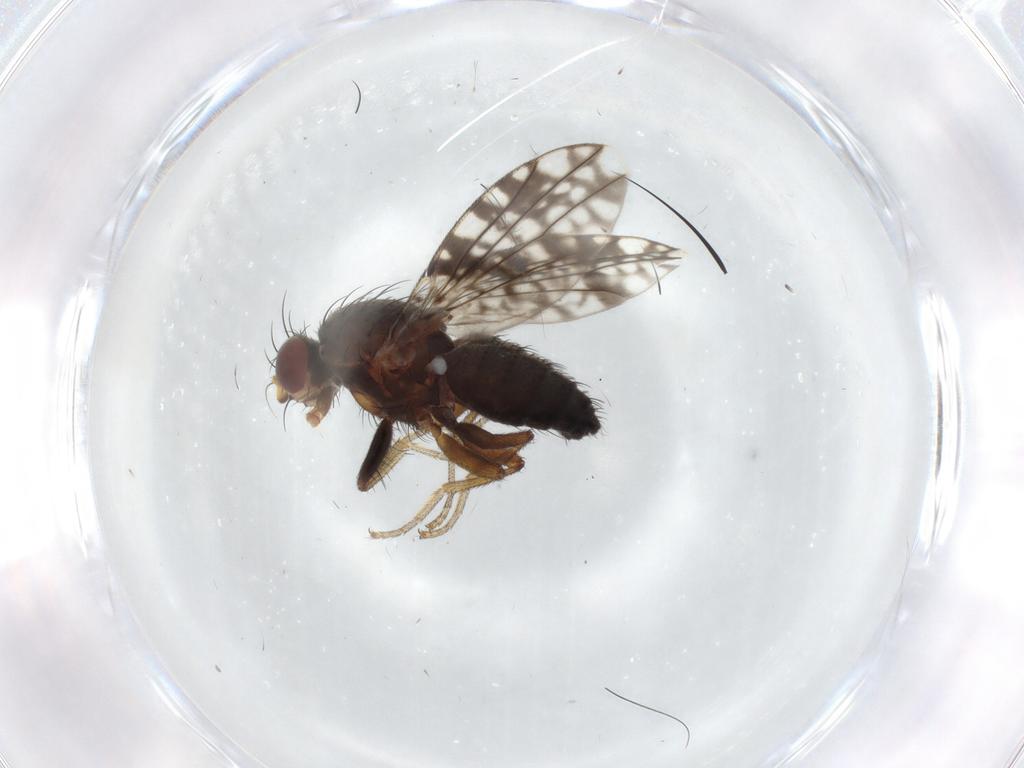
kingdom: Animalia
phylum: Arthropoda
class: Insecta
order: Diptera
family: Tephritidae
